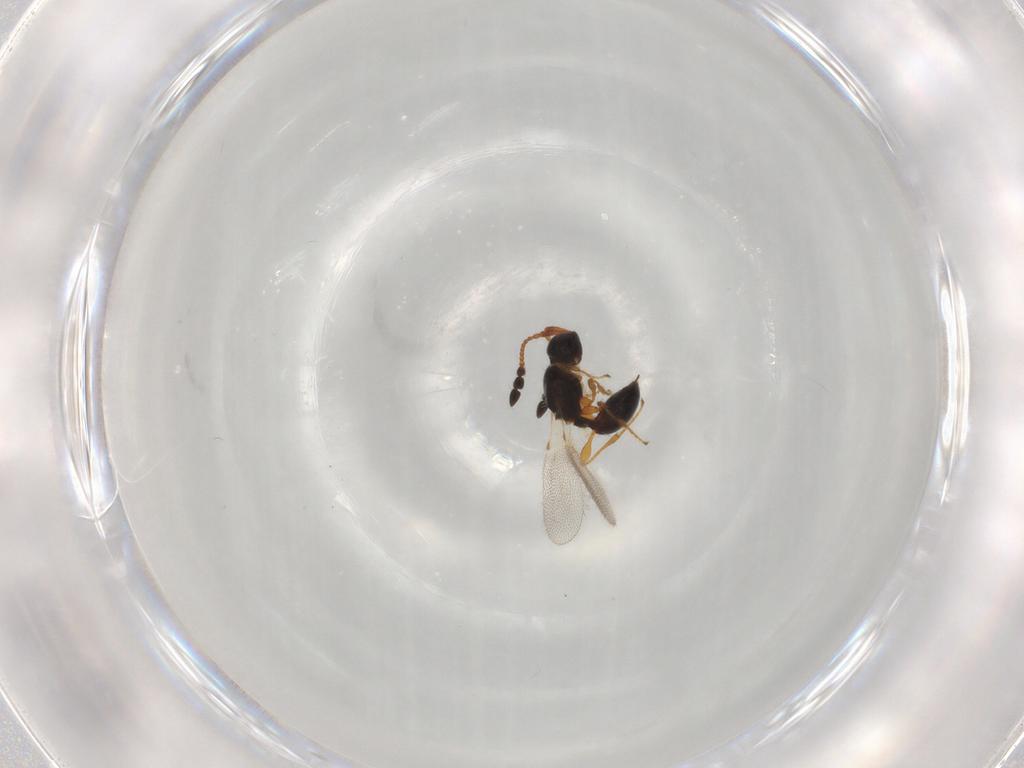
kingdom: Animalia
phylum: Arthropoda
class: Insecta
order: Hymenoptera
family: Diapriidae
